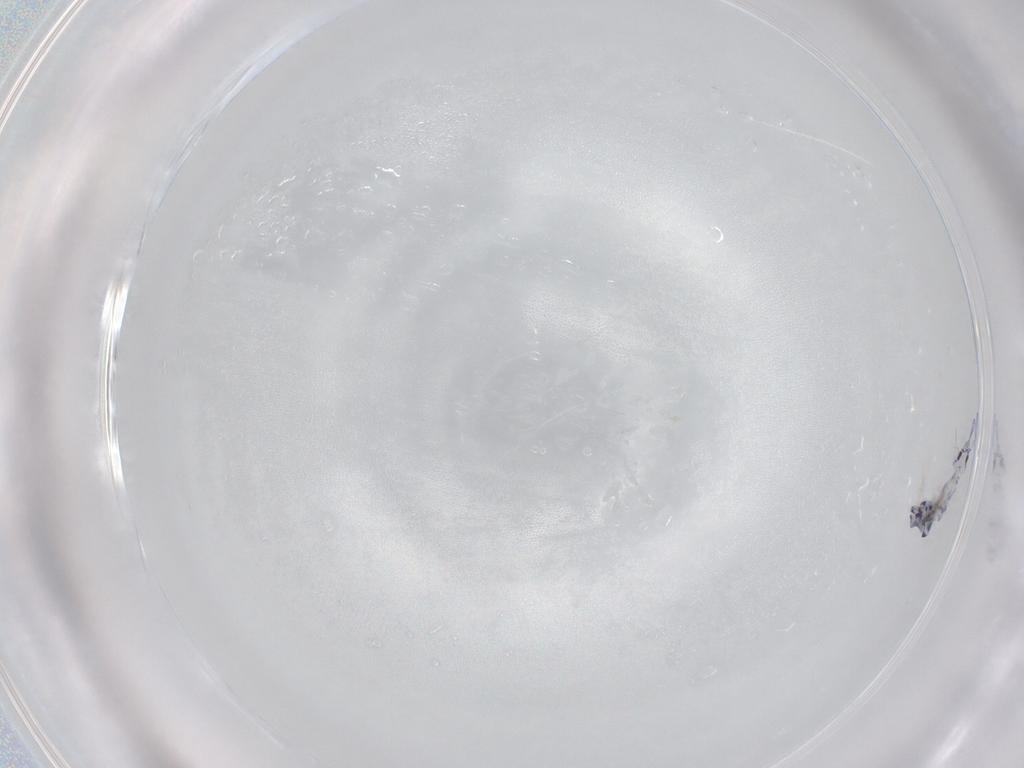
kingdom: Animalia
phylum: Arthropoda
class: Collembola
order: Entomobryomorpha
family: Entomobryidae
